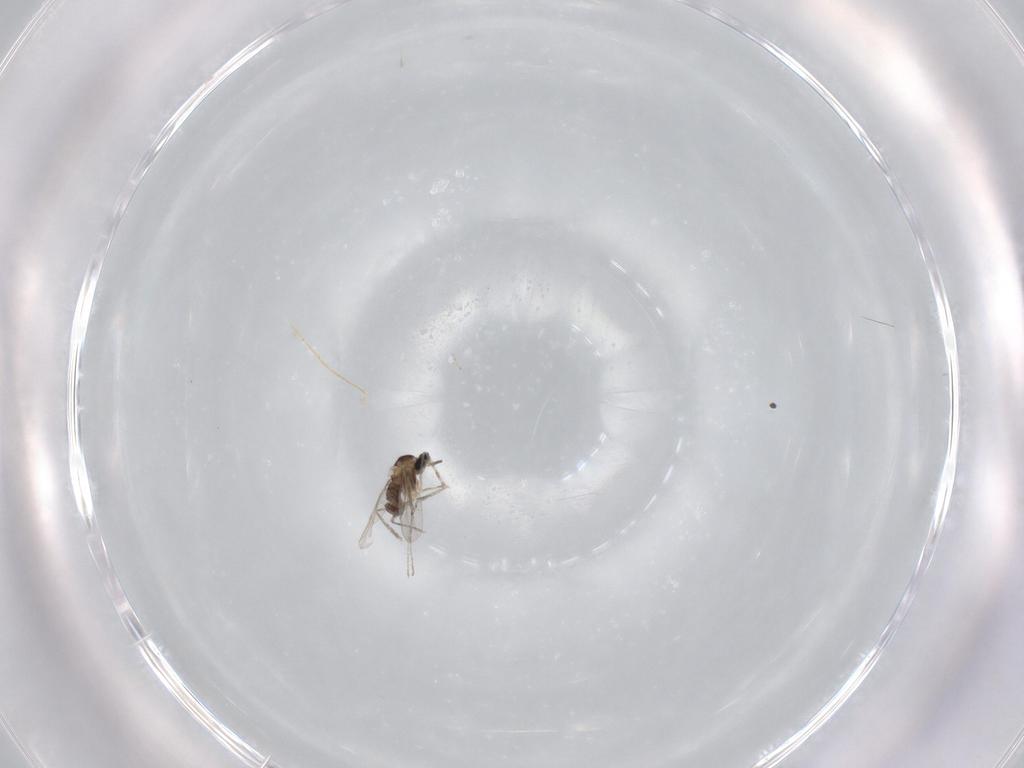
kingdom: Animalia
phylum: Arthropoda
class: Insecta
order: Diptera
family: Cecidomyiidae
